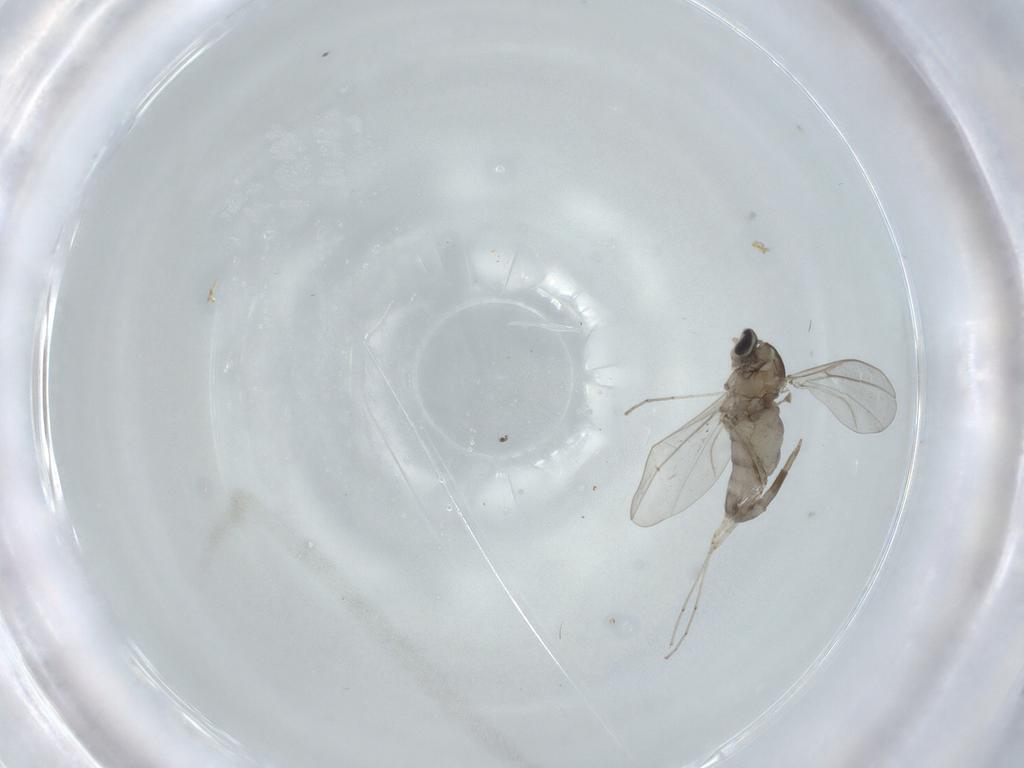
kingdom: Animalia
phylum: Arthropoda
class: Insecta
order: Diptera
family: Cecidomyiidae
